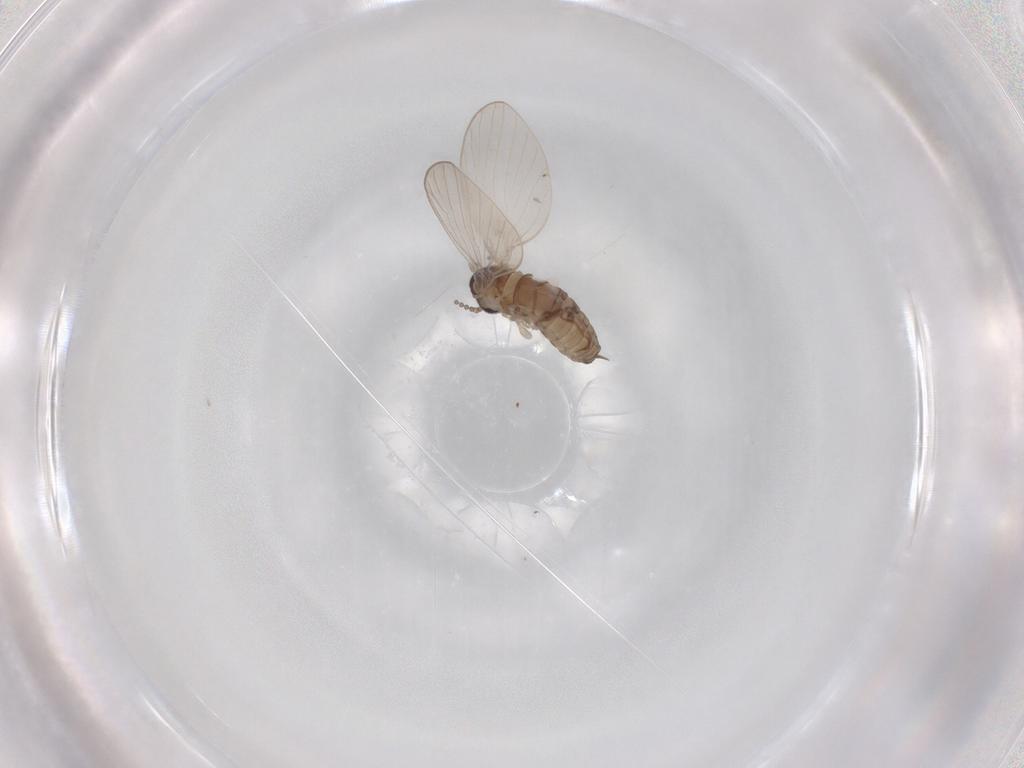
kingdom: Animalia
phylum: Arthropoda
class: Insecta
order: Diptera
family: Psychodidae
